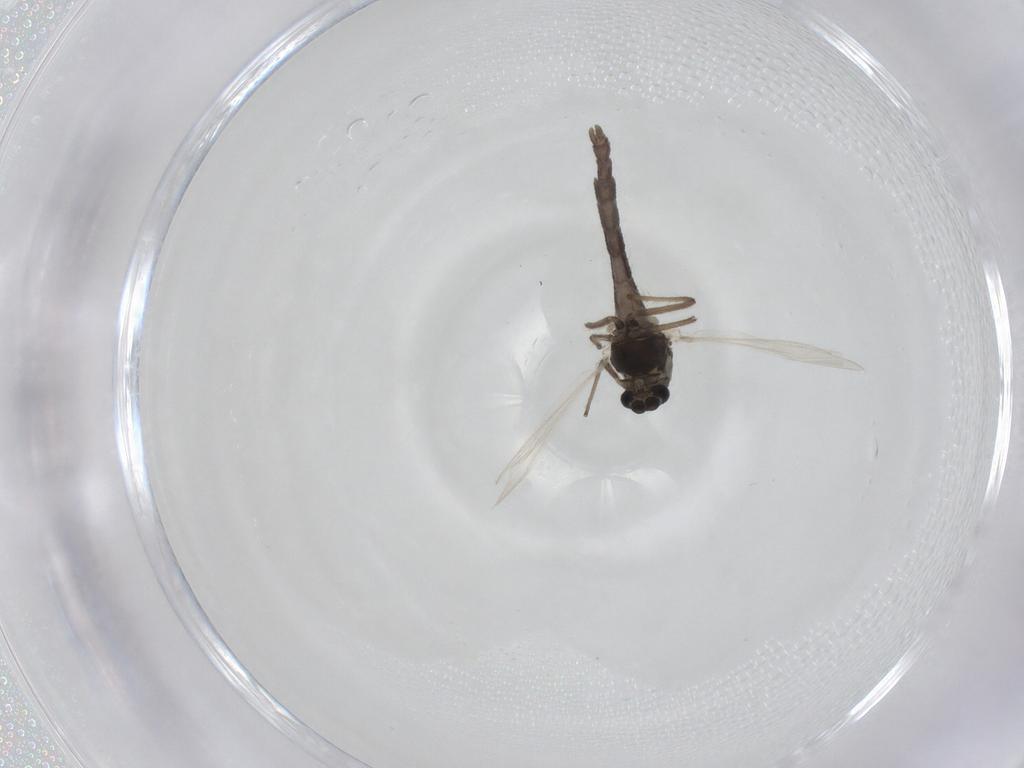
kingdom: Animalia
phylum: Arthropoda
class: Insecta
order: Diptera
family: Chironomidae
